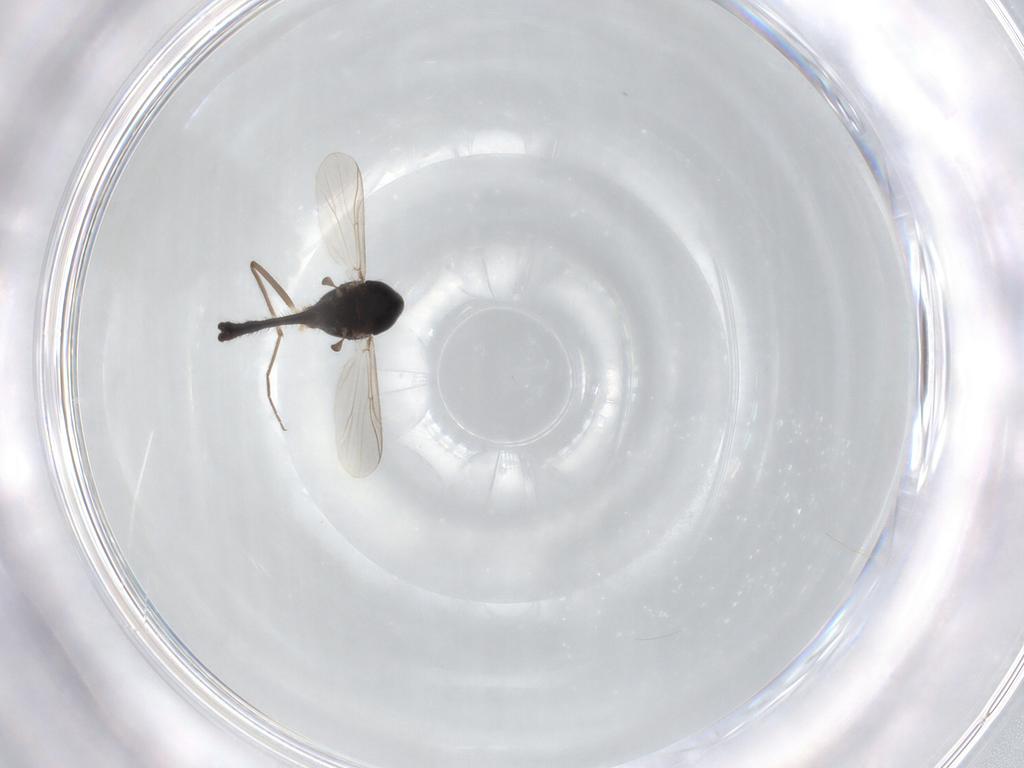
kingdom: Animalia
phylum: Arthropoda
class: Insecta
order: Diptera
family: Chironomidae
